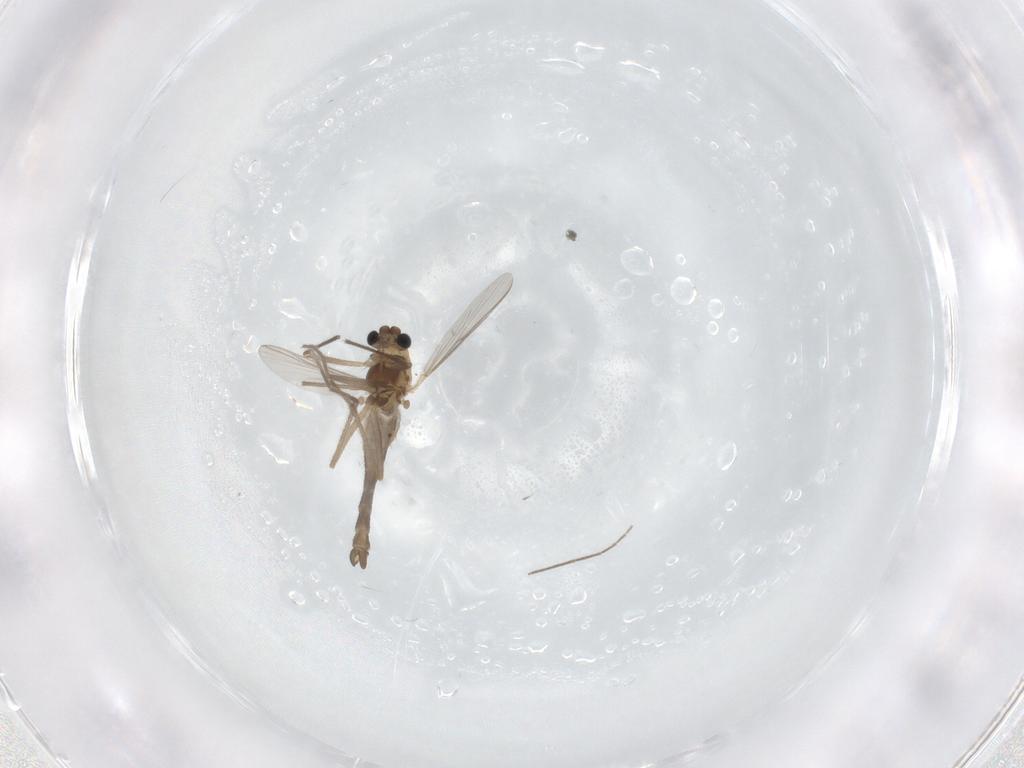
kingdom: Animalia
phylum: Arthropoda
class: Insecta
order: Diptera
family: Chironomidae
